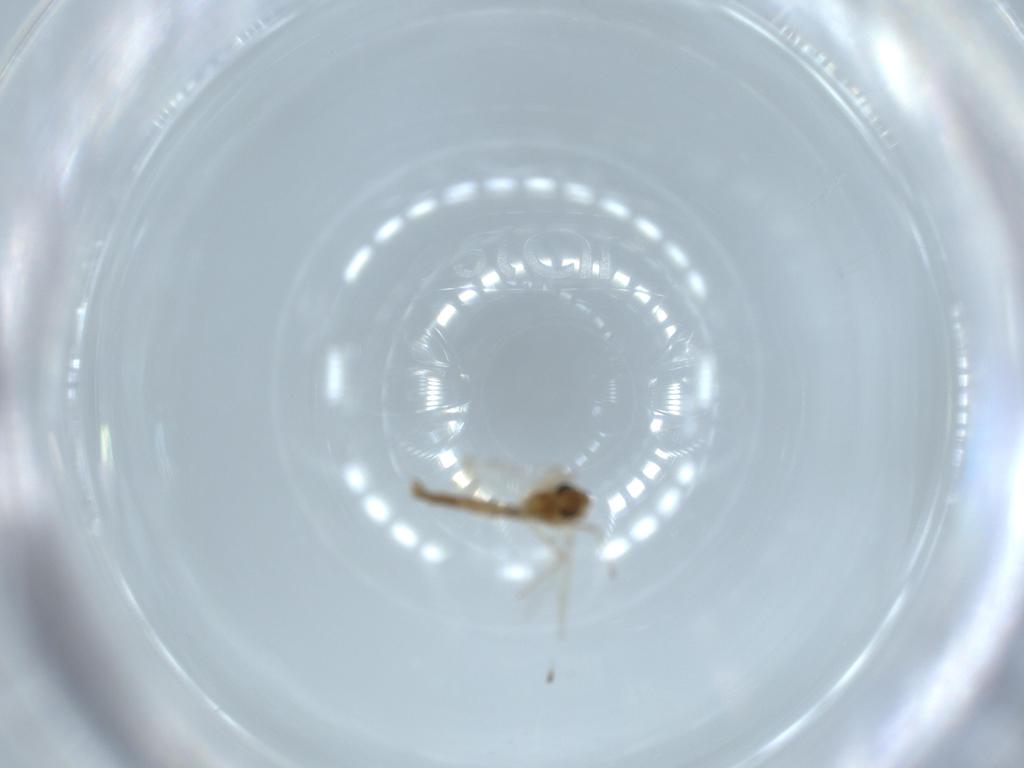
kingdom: Animalia
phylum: Arthropoda
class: Insecta
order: Diptera
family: Chironomidae
